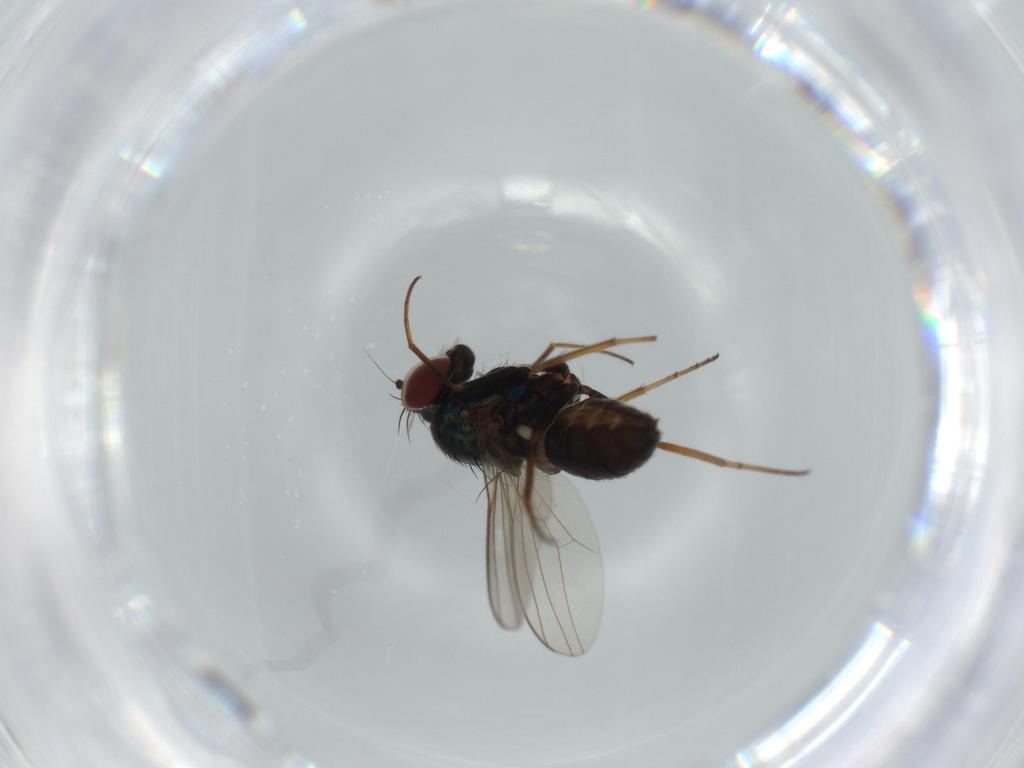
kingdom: Animalia
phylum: Arthropoda
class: Insecta
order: Diptera
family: Dolichopodidae
